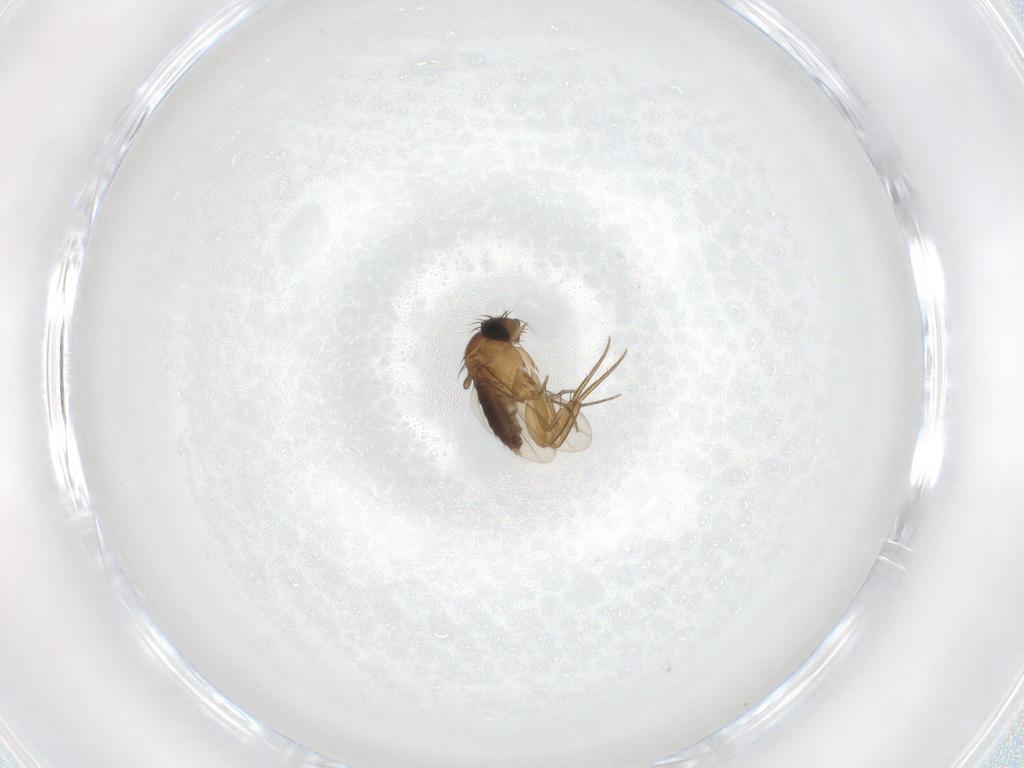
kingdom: Animalia
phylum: Arthropoda
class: Insecta
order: Diptera
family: Phoridae
